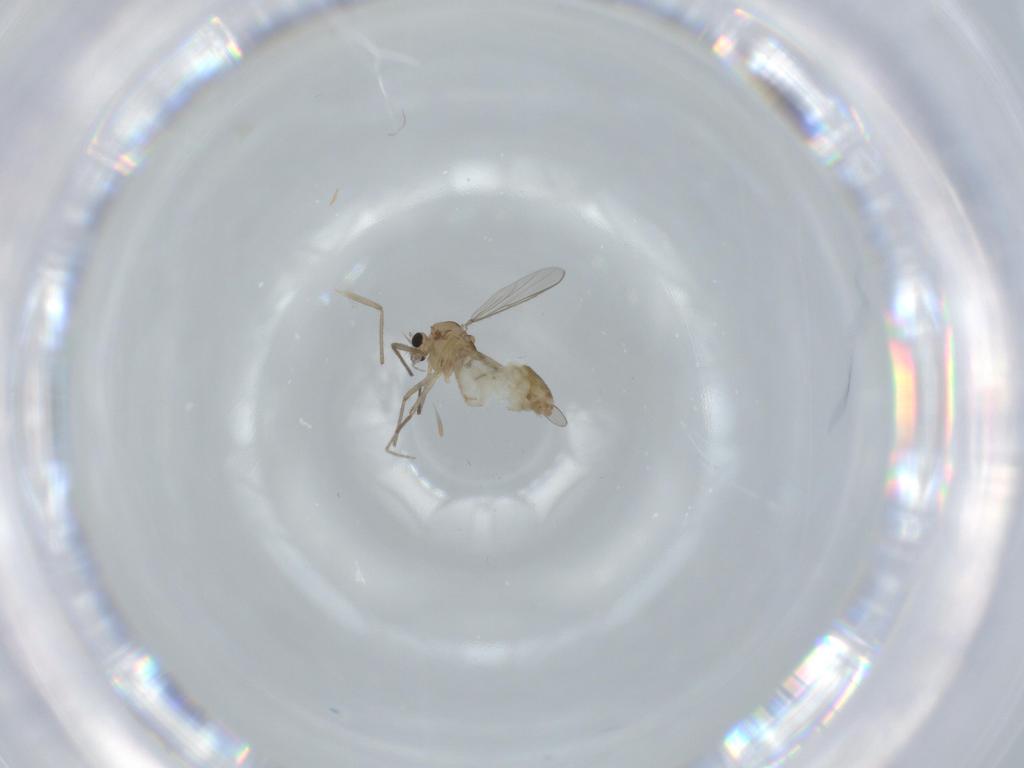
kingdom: Animalia
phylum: Arthropoda
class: Insecta
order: Diptera
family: Chironomidae
